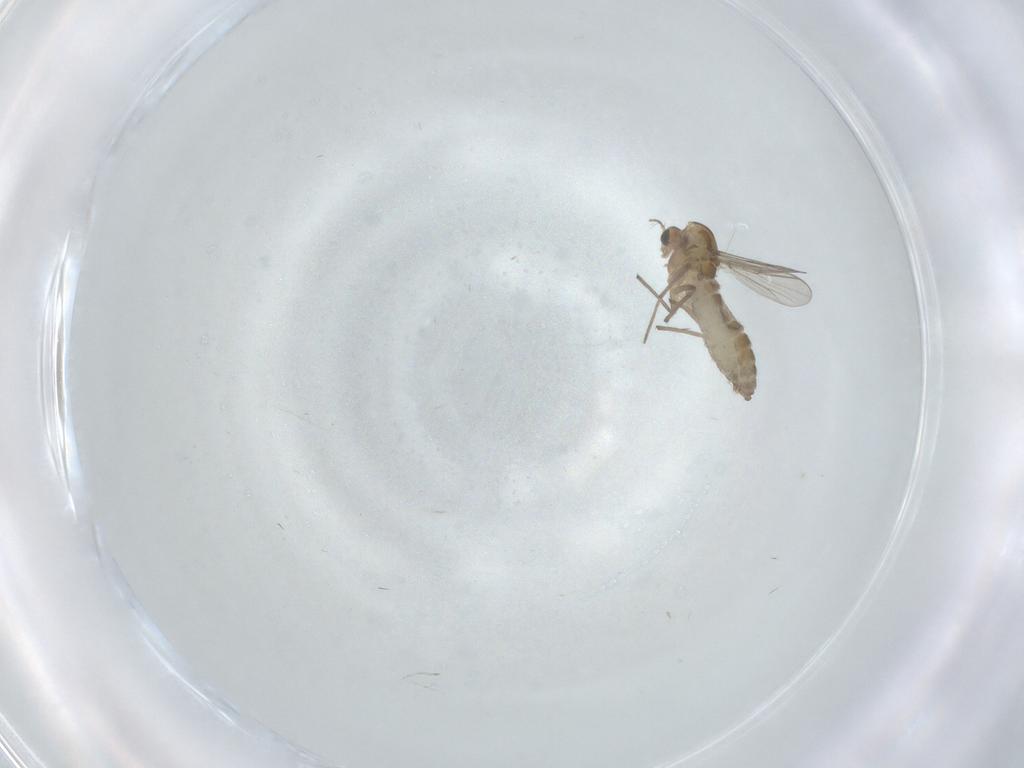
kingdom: Animalia
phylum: Arthropoda
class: Insecta
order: Diptera
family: Chironomidae
